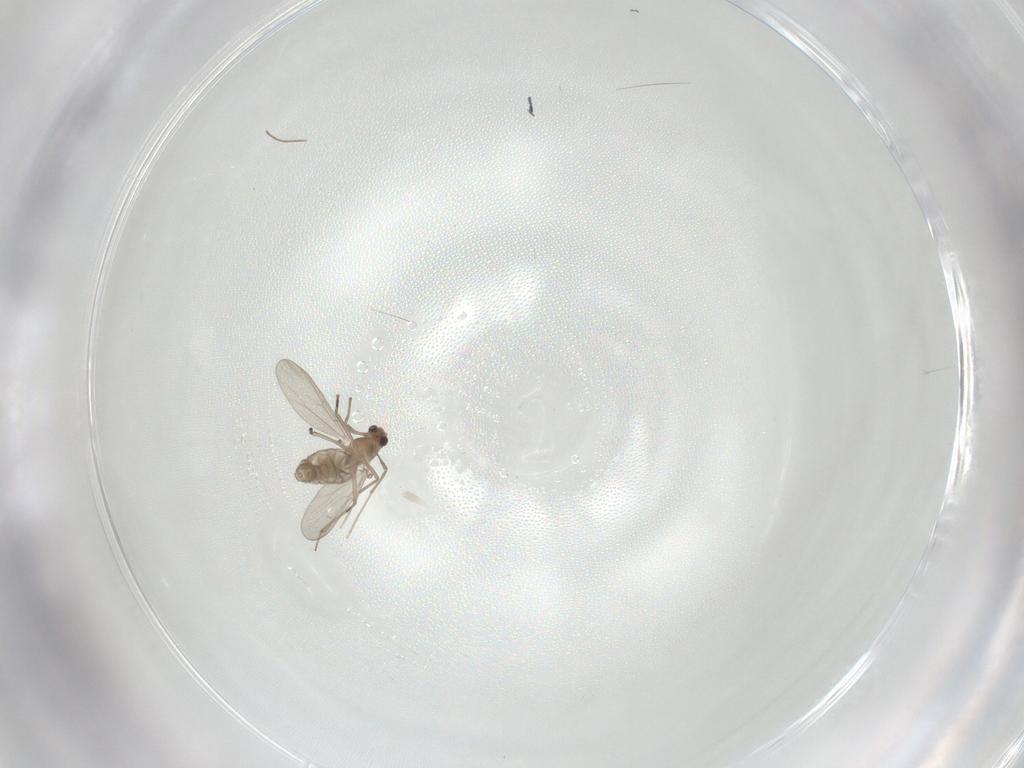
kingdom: Animalia
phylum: Arthropoda
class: Insecta
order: Diptera
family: Chironomidae
